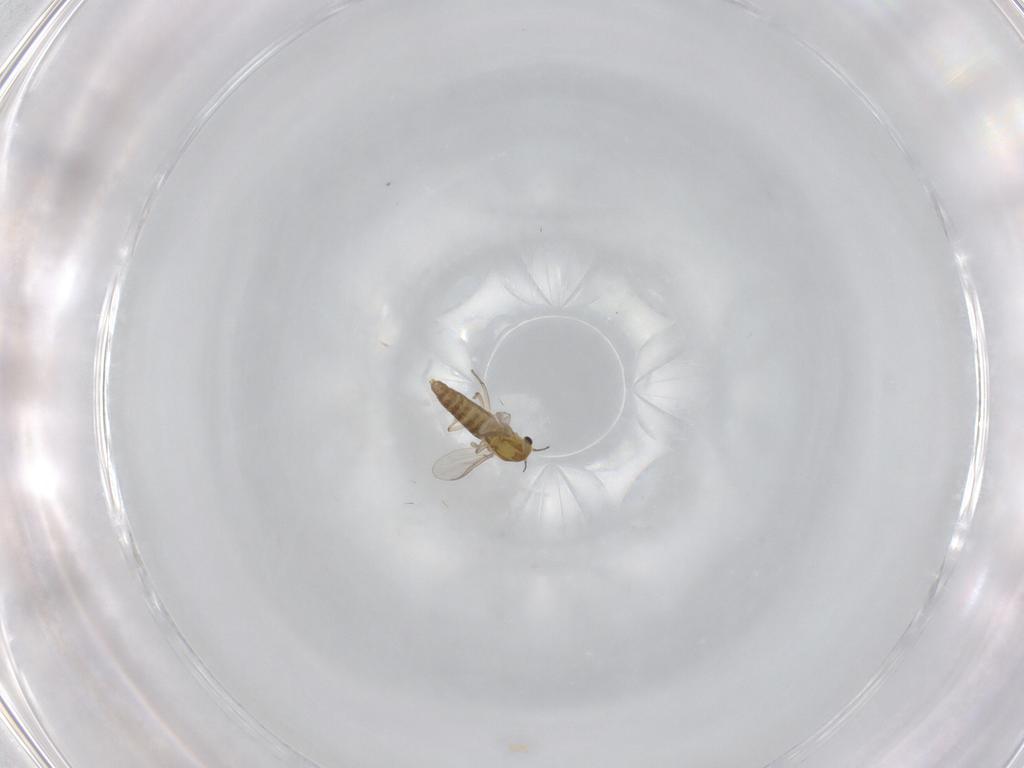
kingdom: Animalia
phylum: Arthropoda
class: Insecta
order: Diptera
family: Chironomidae
